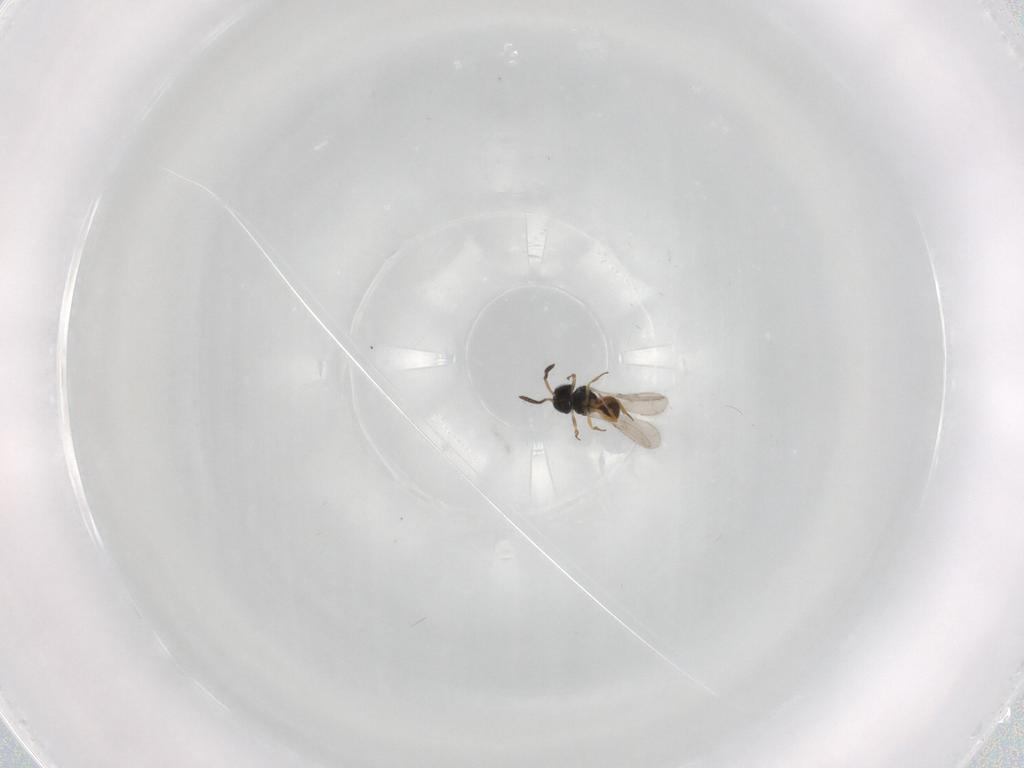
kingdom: Animalia
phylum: Arthropoda
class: Insecta
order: Hymenoptera
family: Scelionidae
